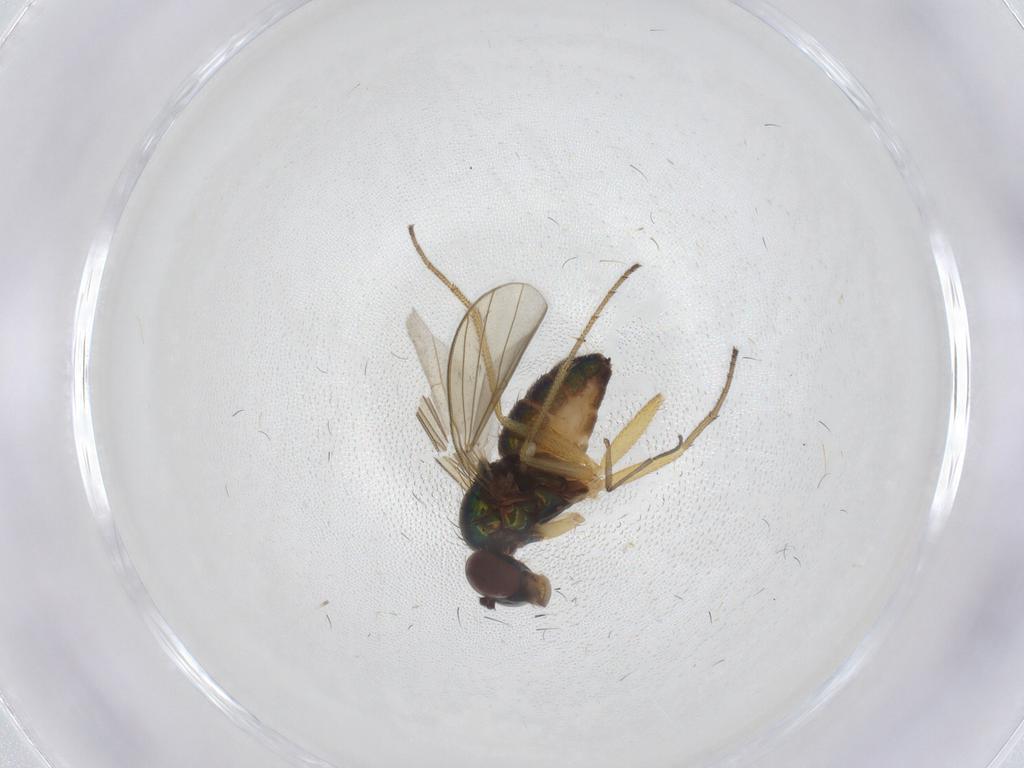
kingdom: Animalia
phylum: Arthropoda
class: Insecta
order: Diptera
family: Dolichopodidae
